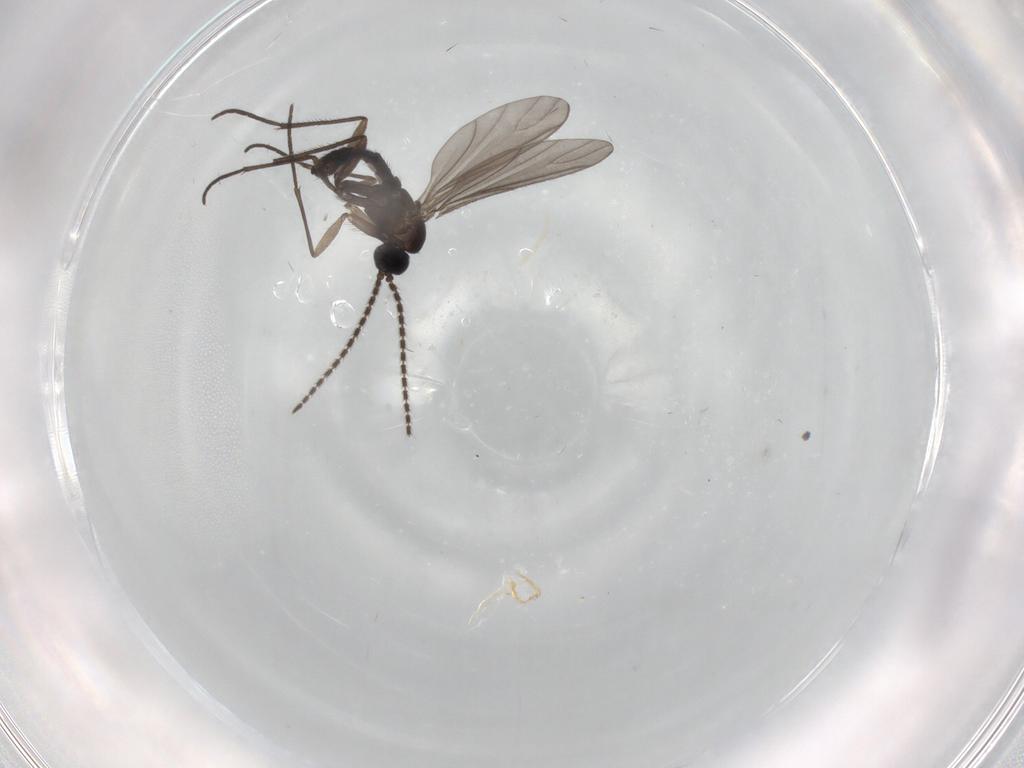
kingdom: Animalia
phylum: Arthropoda
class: Insecta
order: Diptera
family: Sciaridae
